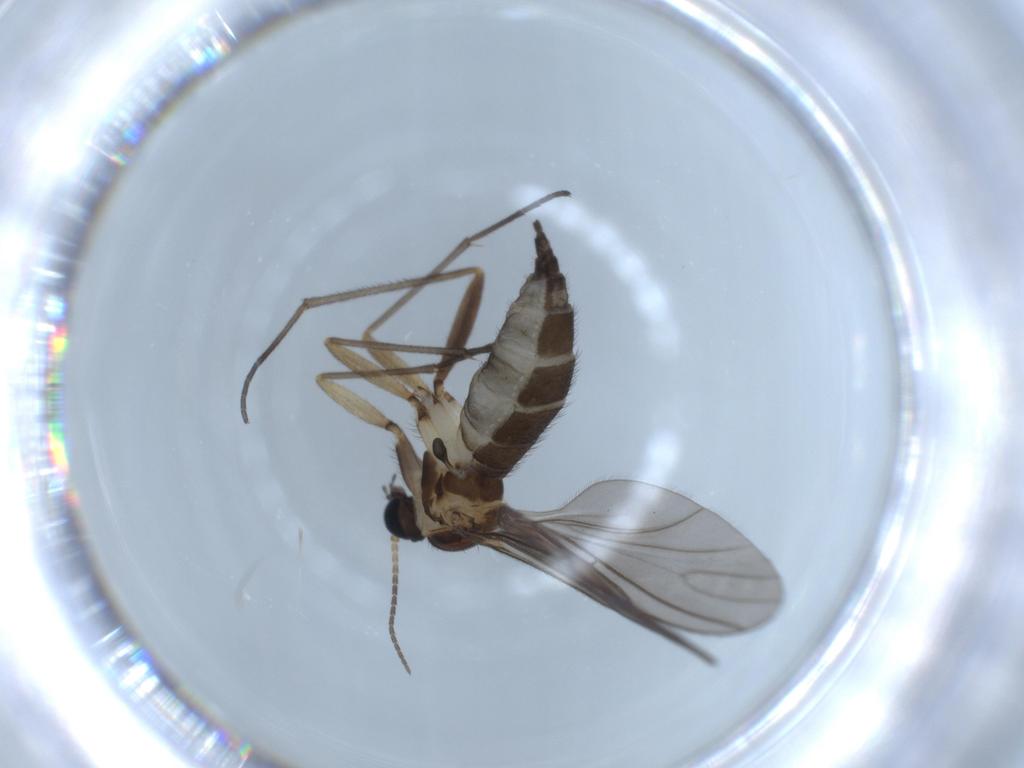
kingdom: Animalia
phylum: Arthropoda
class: Insecta
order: Diptera
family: Sciaridae
